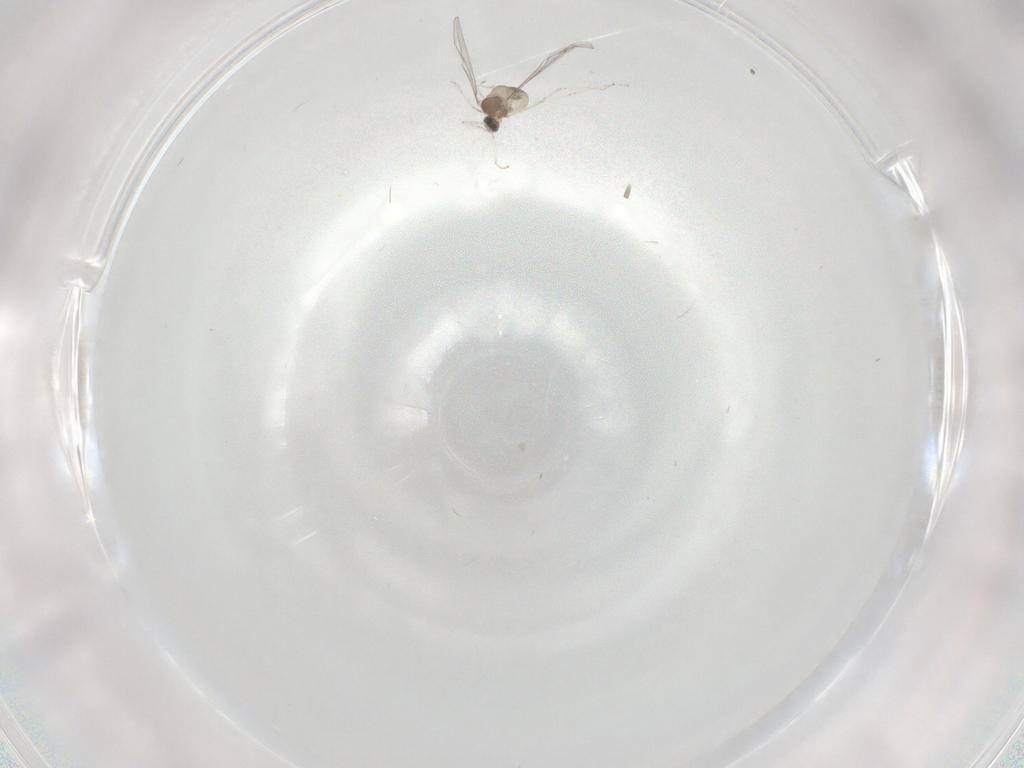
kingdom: Animalia
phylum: Arthropoda
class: Insecta
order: Diptera
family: Cecidomyiidae
